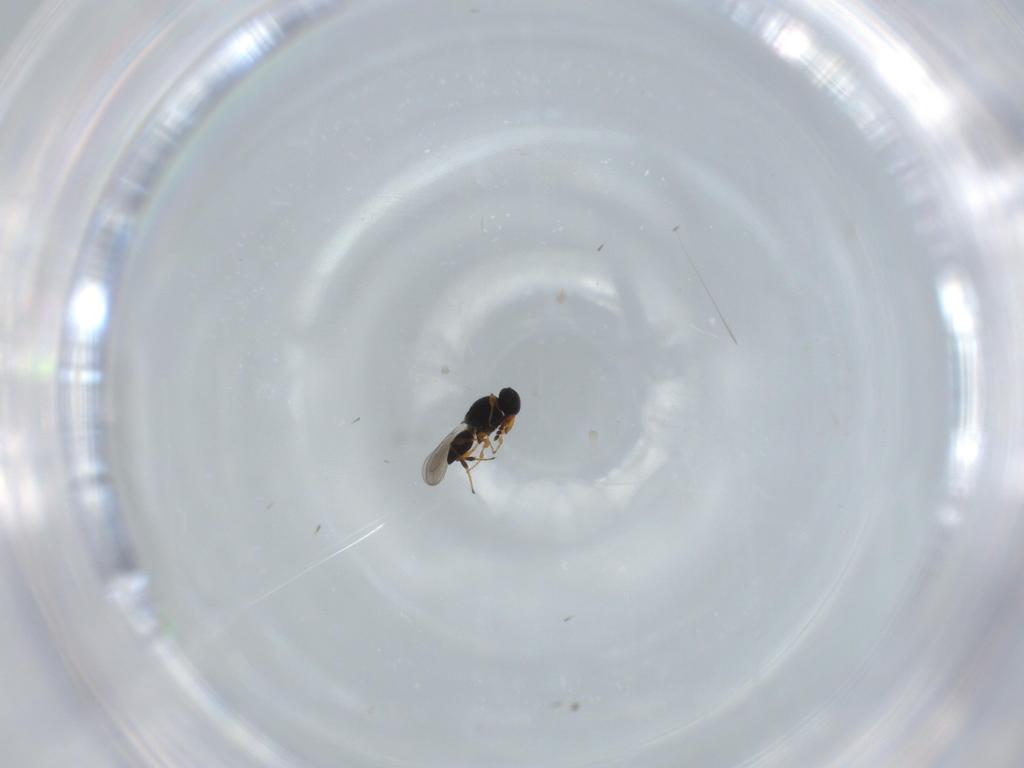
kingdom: Animalia
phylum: Arthropoda
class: Insecta
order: Hymenoptera
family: Platygastridae
